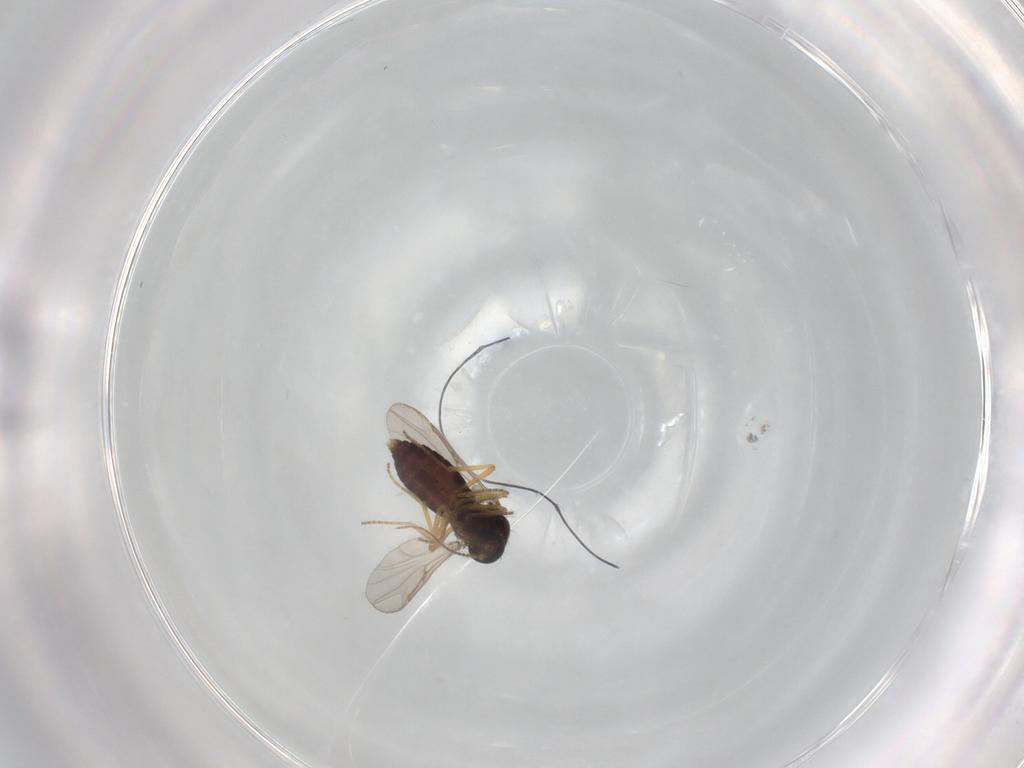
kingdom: Animalia
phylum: Arthropoda
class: Insecta
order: Diptera
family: Ceratopogonidae
